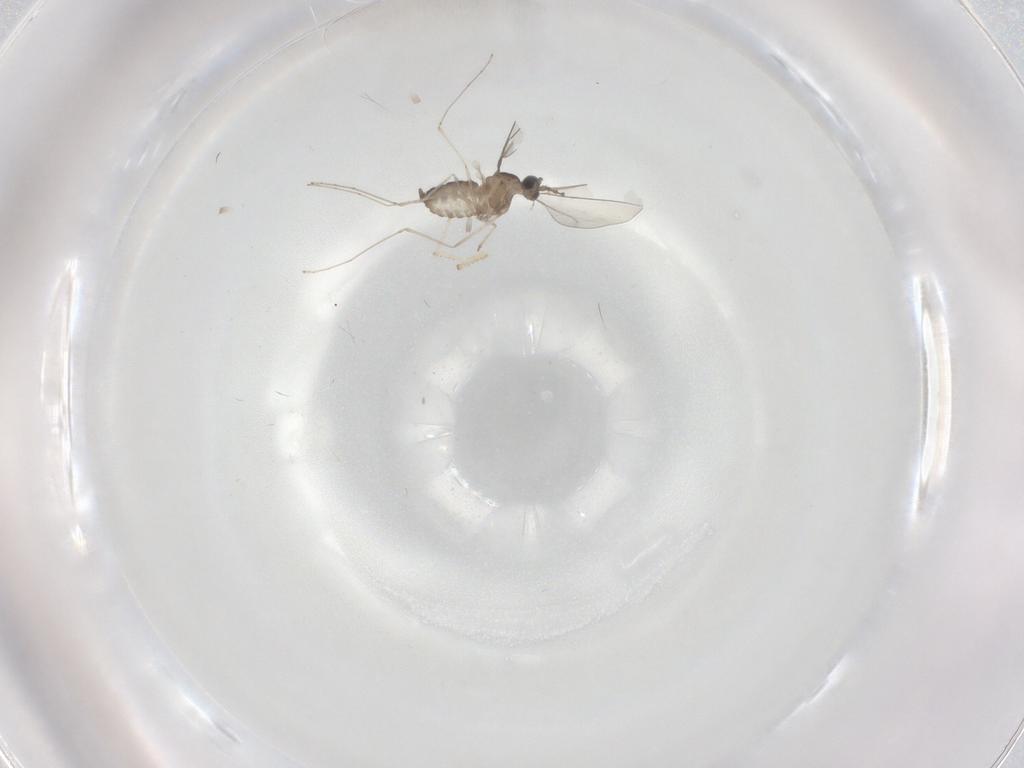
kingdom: Animalia
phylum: Arthropoda
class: Insecta
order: Diptera
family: Cecidomyiidae
